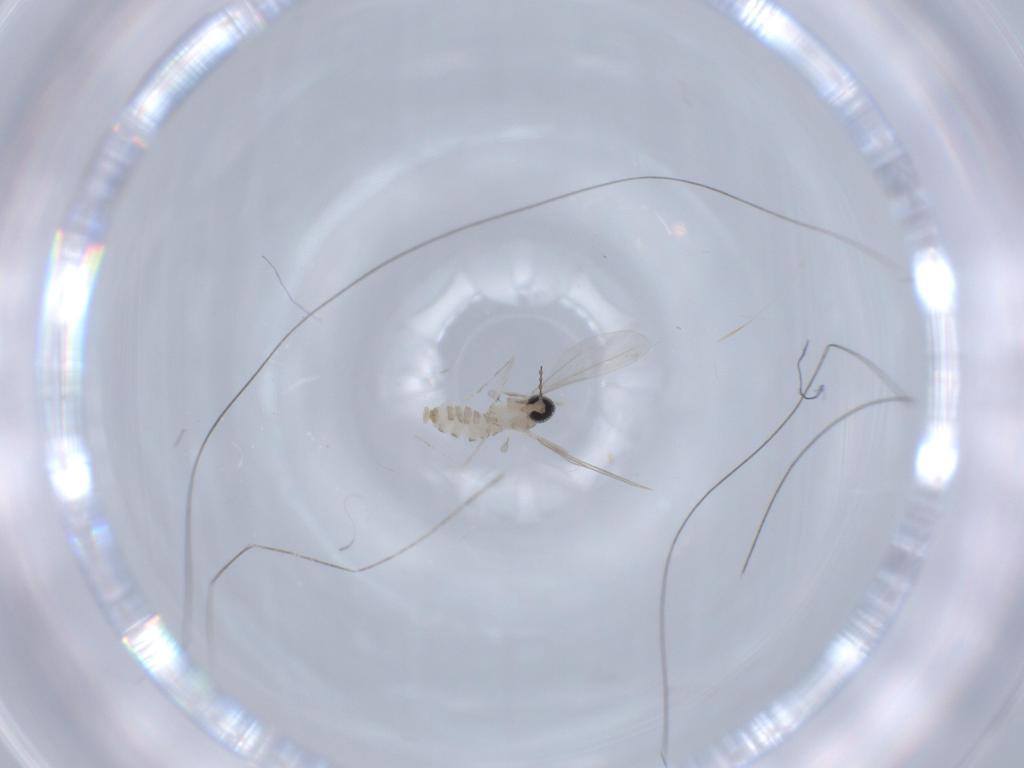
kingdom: Animalia
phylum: Arthropoda
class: Insecta
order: Diptera
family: Cecidomyiidae
